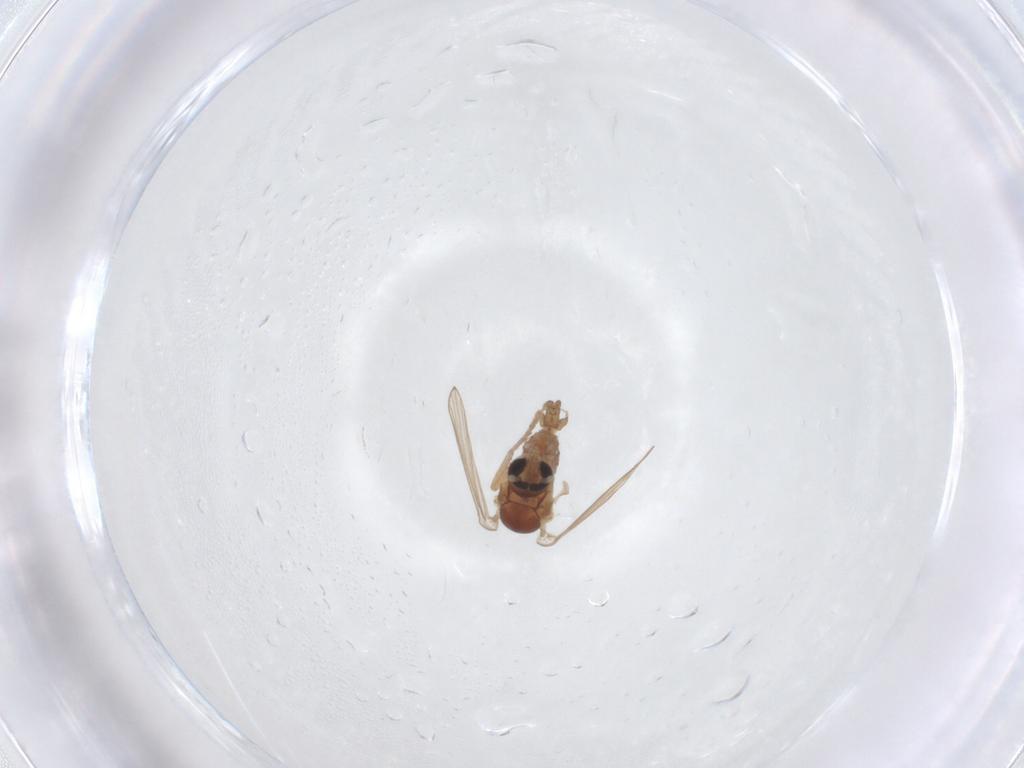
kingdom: Animalia
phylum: Arthropoda
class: Insecta
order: Diptera
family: Psychodidae
